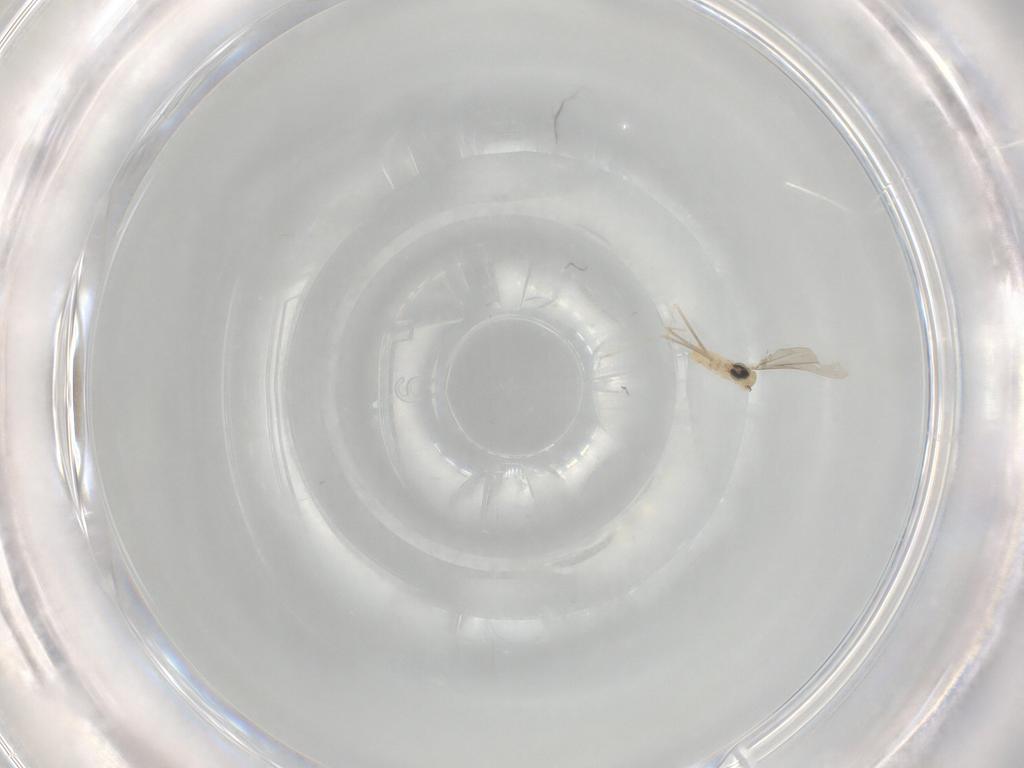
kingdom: Animalia
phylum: Arthropoda
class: Insecta
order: Diptera
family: Cecidomyiidae
